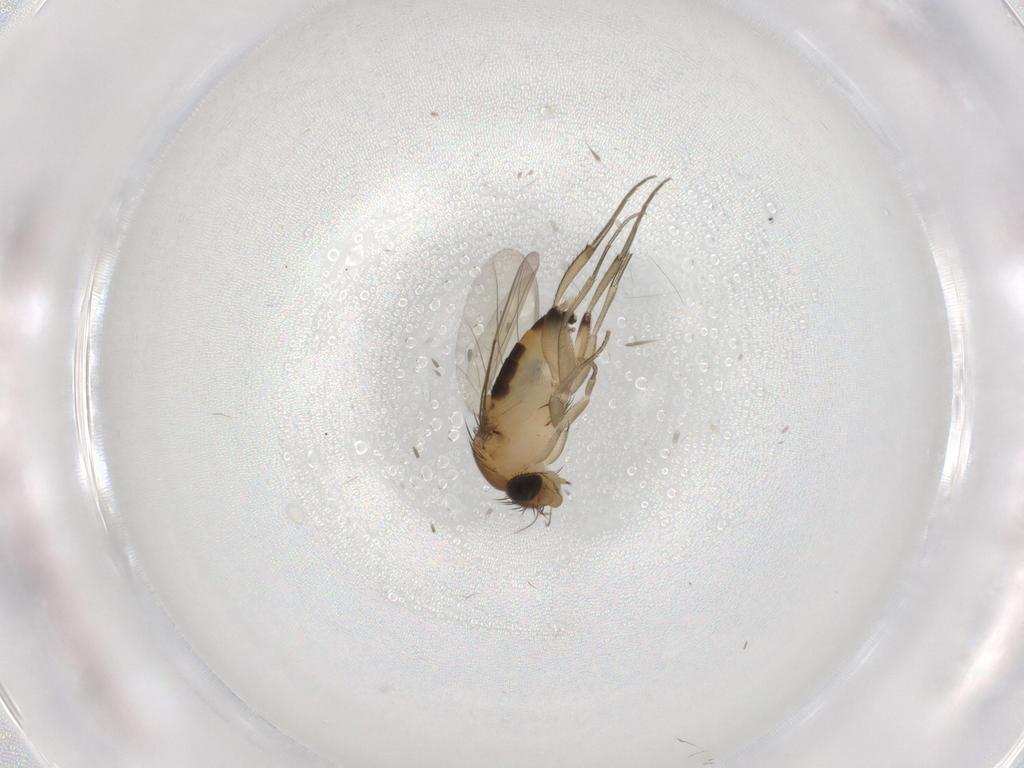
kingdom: Animalia
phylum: Arthropoda
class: Insecta
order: Diptera
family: Phoridae
